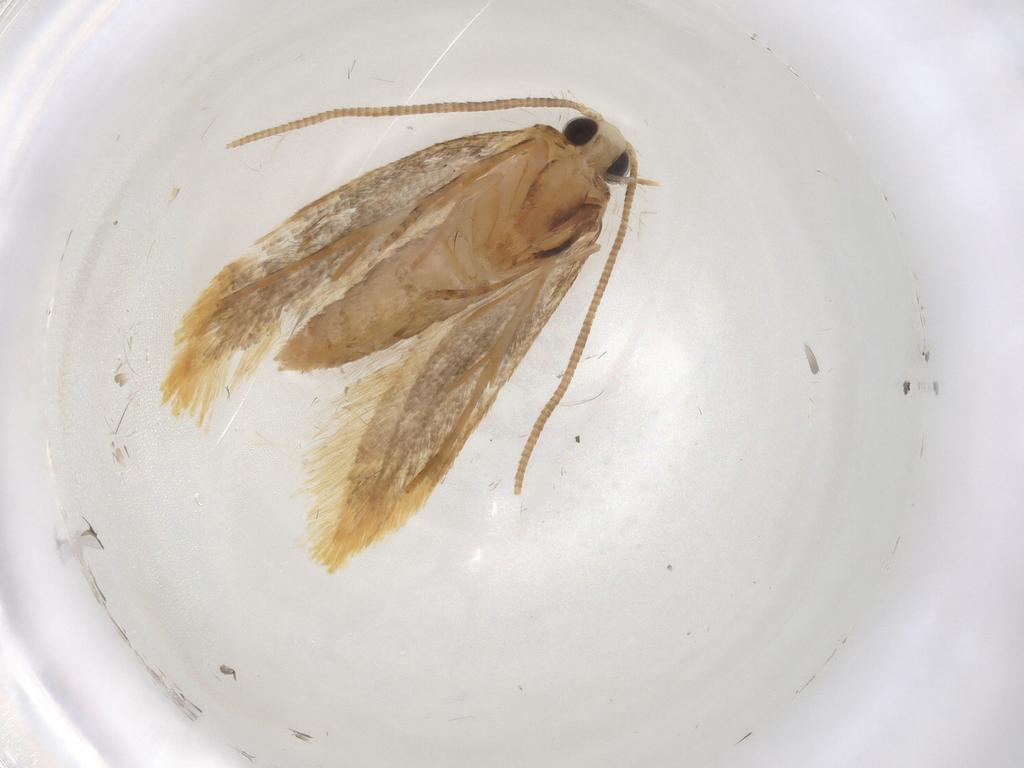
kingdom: Animalia
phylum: Arthropoda
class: Insecta
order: Lepidoptera
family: Tineidae
